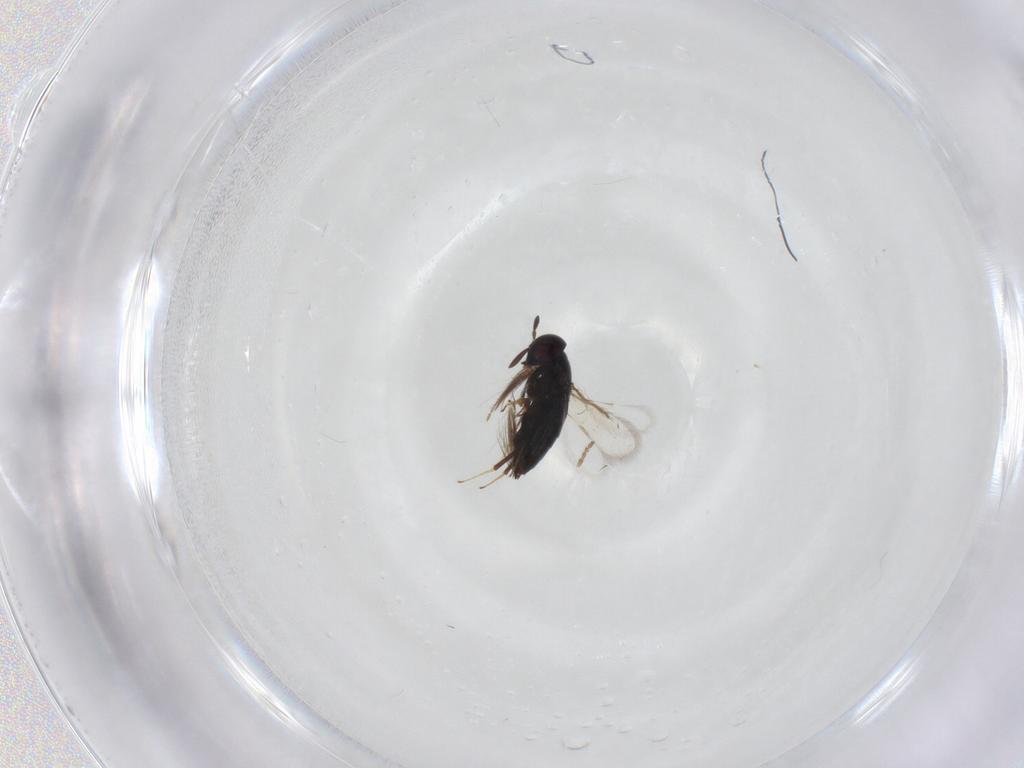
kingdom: Animalia
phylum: Arthropoda
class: Insecta
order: Hymenoptera
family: Signiphoridae
